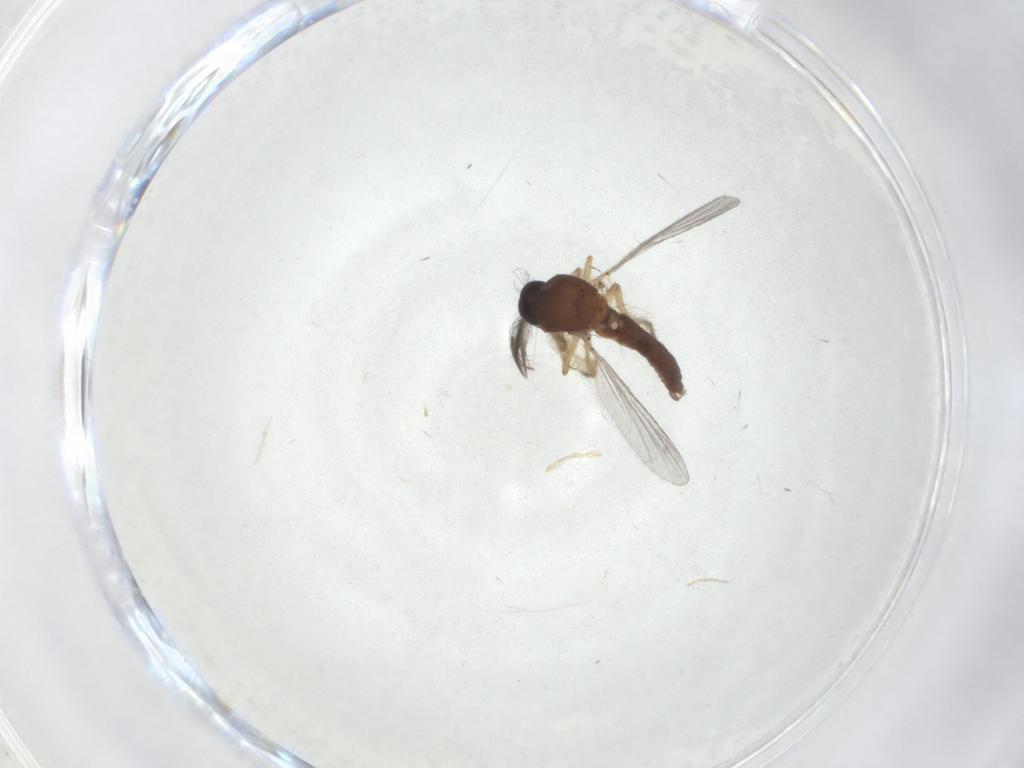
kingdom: Animalia
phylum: Arthropoda
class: Insecta
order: Diptera
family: Ceratopogonidae
